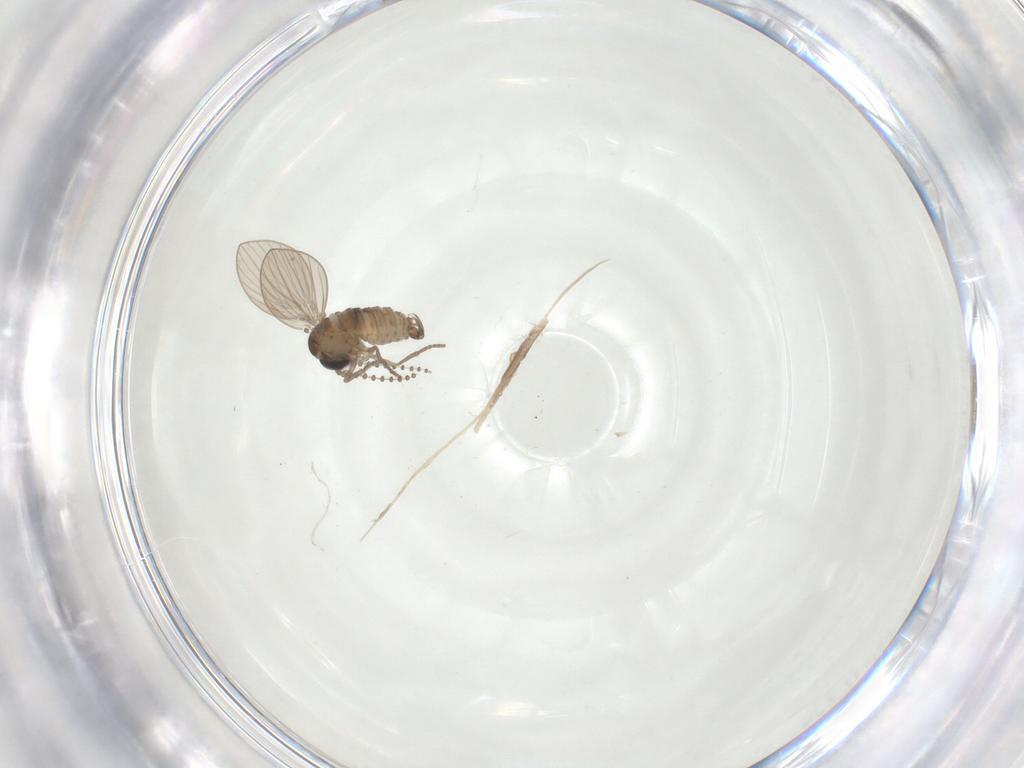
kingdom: Animalia
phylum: Arthropoda
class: Insecta
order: Diptera
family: Psychodidae
